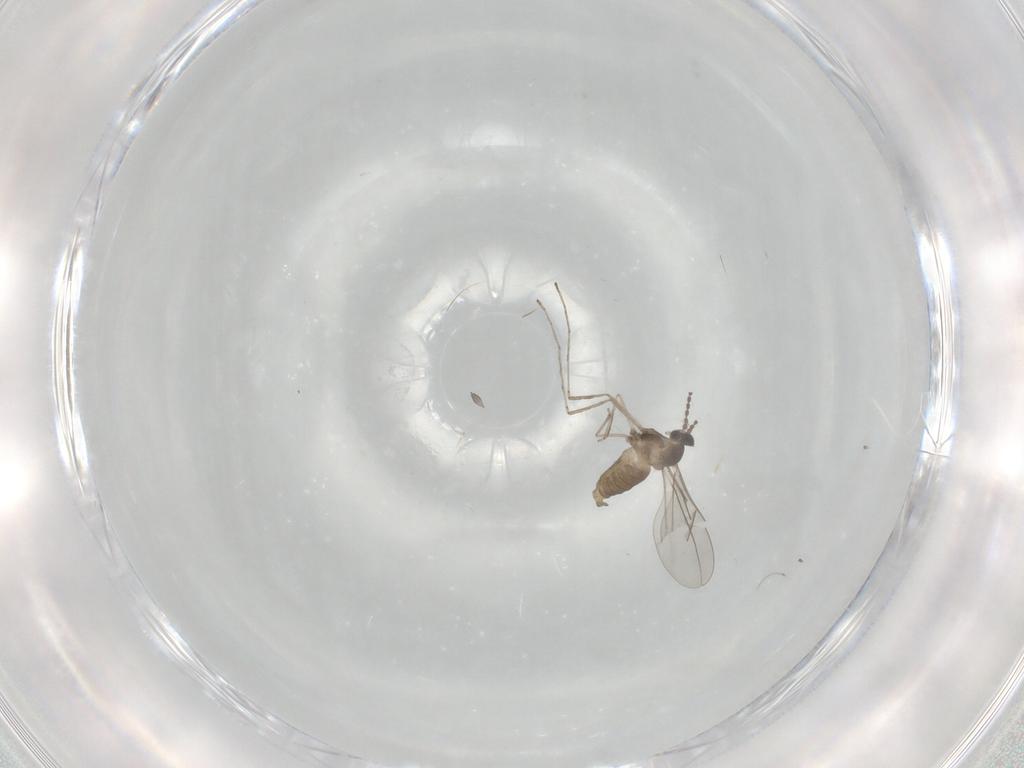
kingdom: Animalia
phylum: Arthropoda
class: Insecta
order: Diptera
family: Cecidomyiidae
